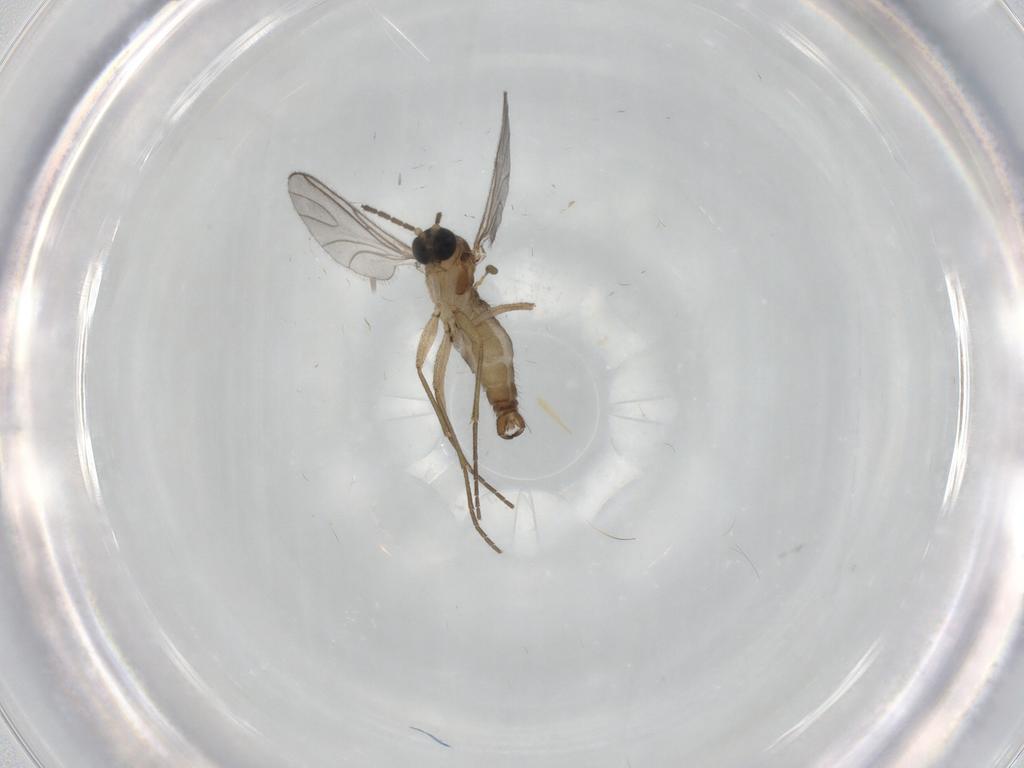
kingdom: Animalia
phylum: Arthropoda
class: Insecta
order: Diptera
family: Sciaridae
